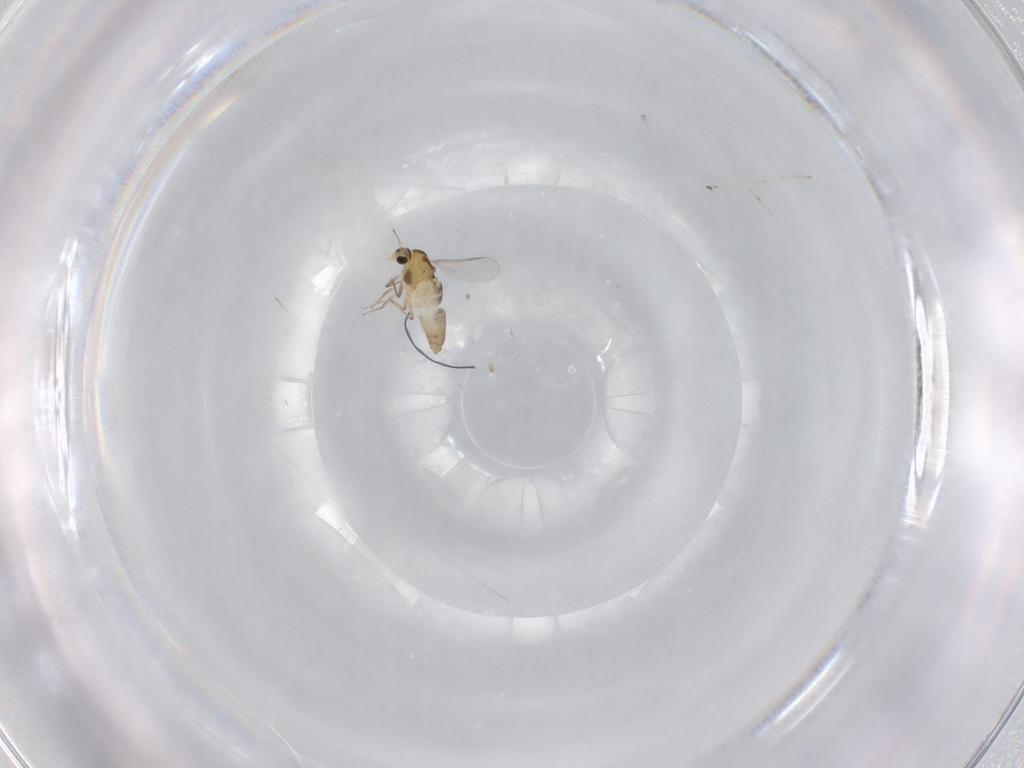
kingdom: Animalia
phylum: Arthropoda
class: Insecta
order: Diptera
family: Chironomidae
